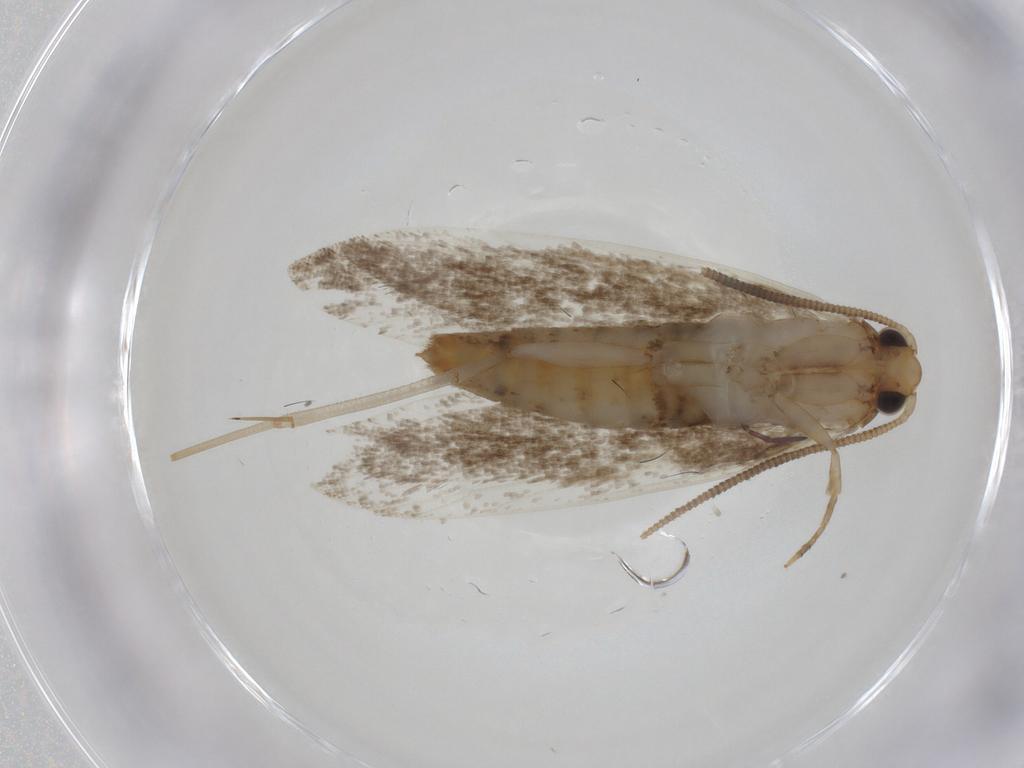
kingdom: Animalia
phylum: Arthropoda
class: Insecta
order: Lepidoptera
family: Tineidae
